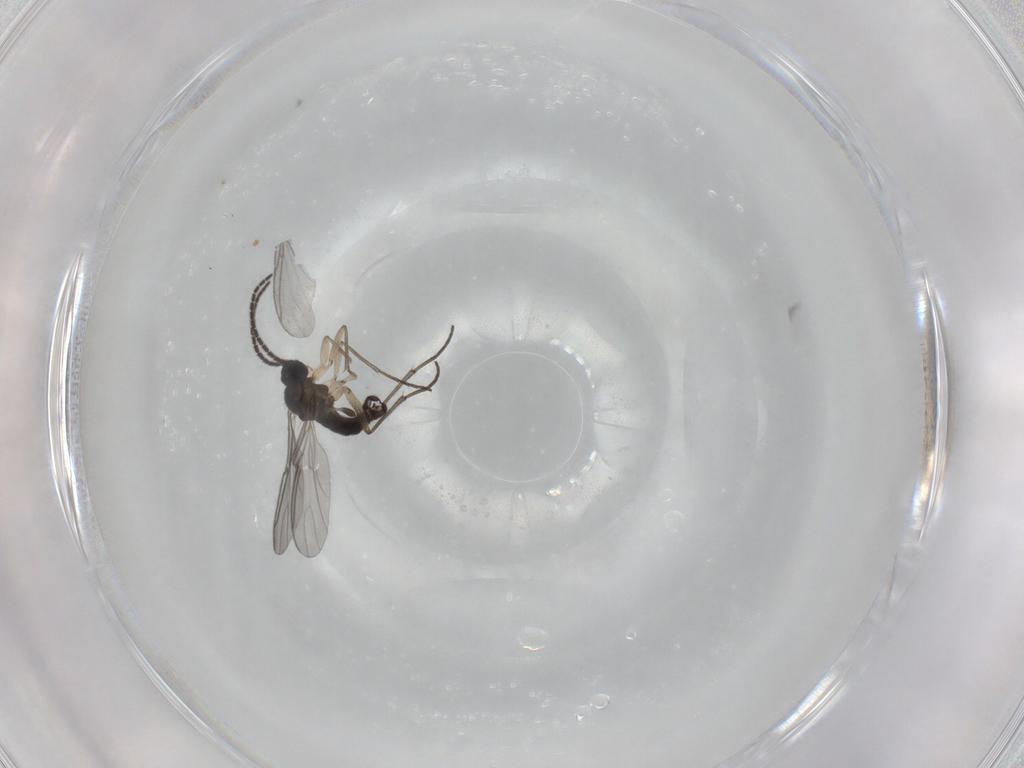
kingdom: Animalia
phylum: Arthropoda
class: Insecta
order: Diptera
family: Sciaridae
